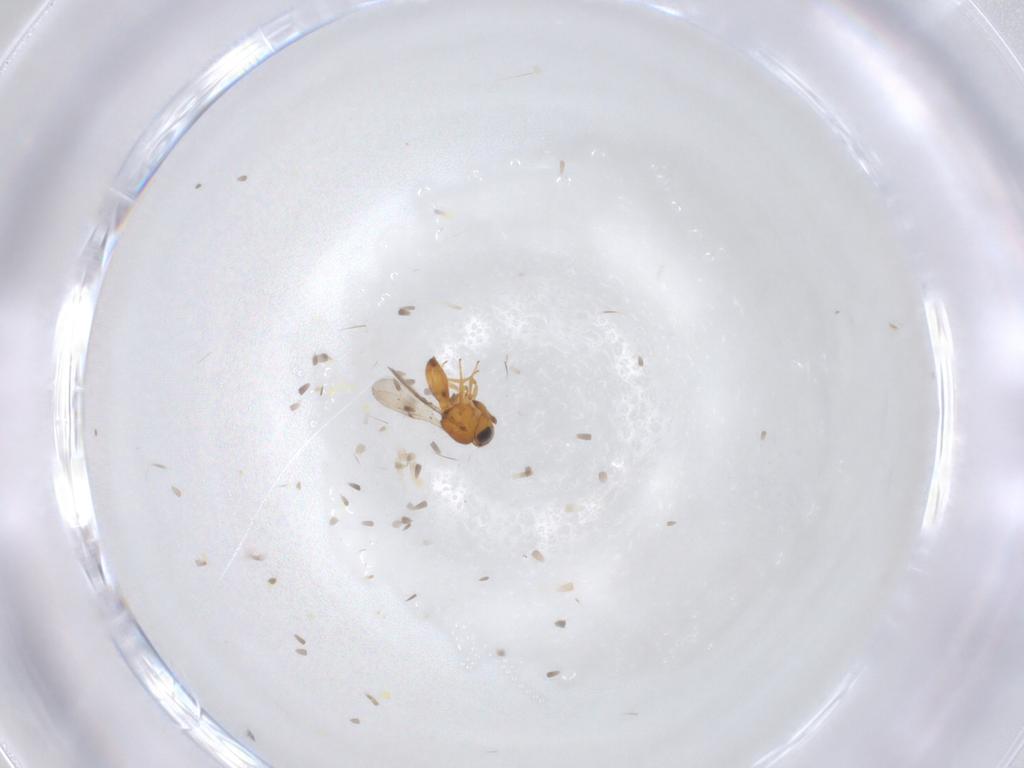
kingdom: Animalia
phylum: Arthropoda
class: Insecta
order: Hymenoptera
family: Scelionidae
